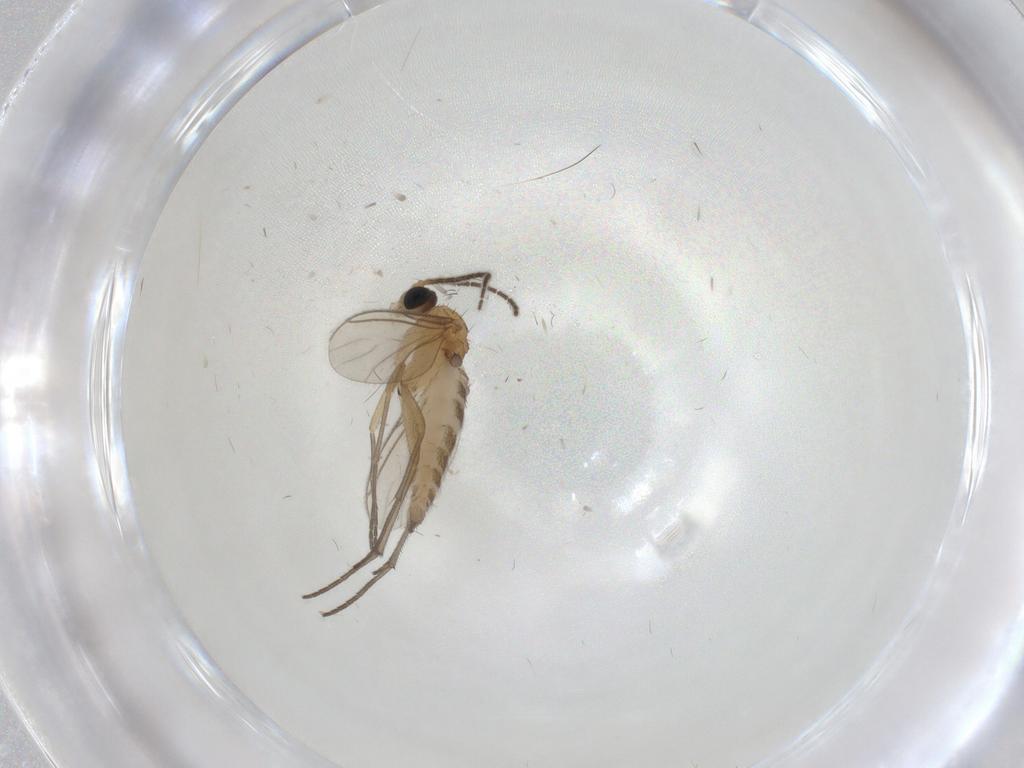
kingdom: Animalia
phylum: Arthropoda
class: Insecta
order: Diptera
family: Sciaridae
